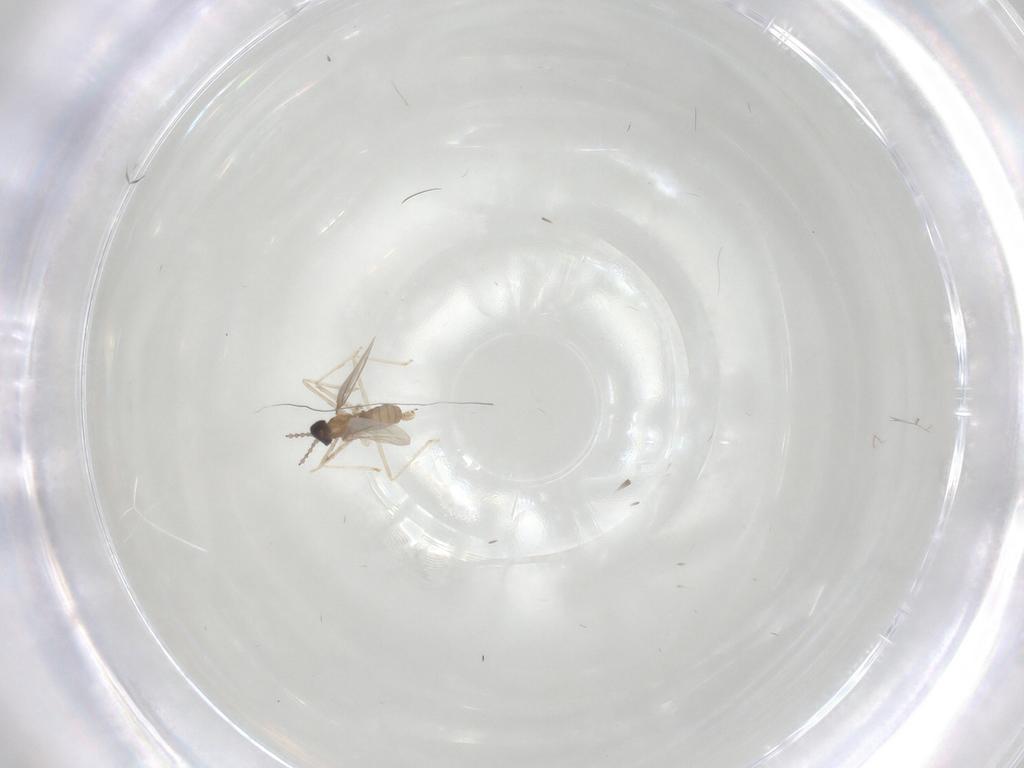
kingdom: Animalia
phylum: Arthropoda
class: Insecta
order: Diptera
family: Cecidomyiidae
